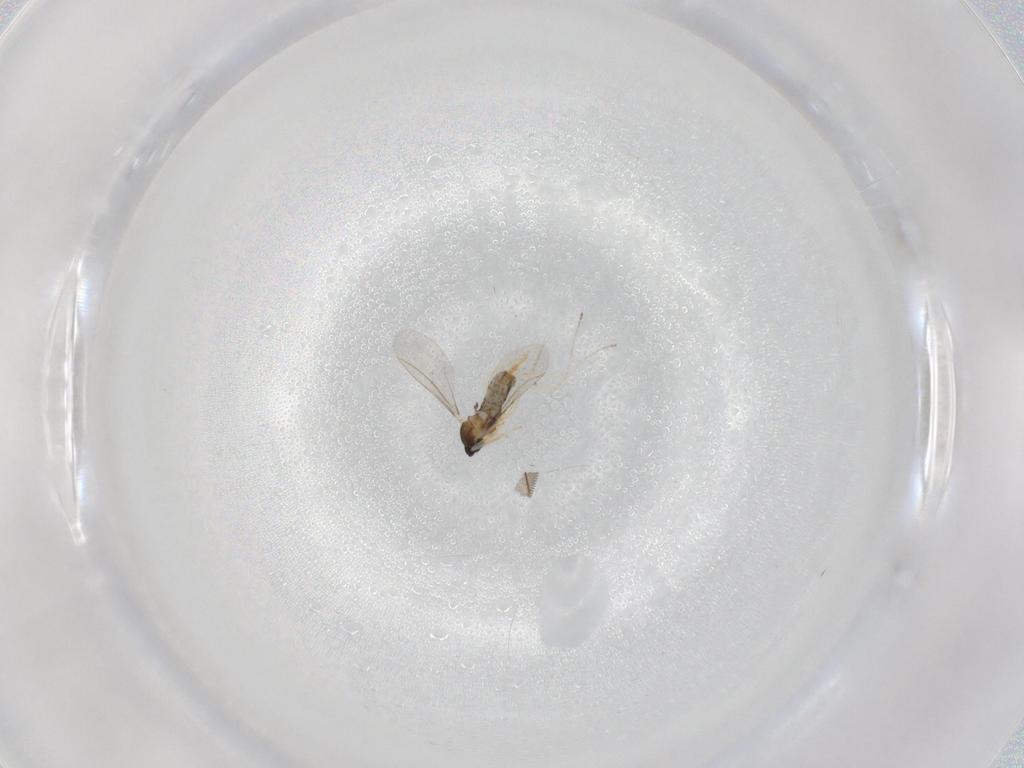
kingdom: Animalia
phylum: Arthropoda
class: Insecta
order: Diptera
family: Cecidomyiidae
